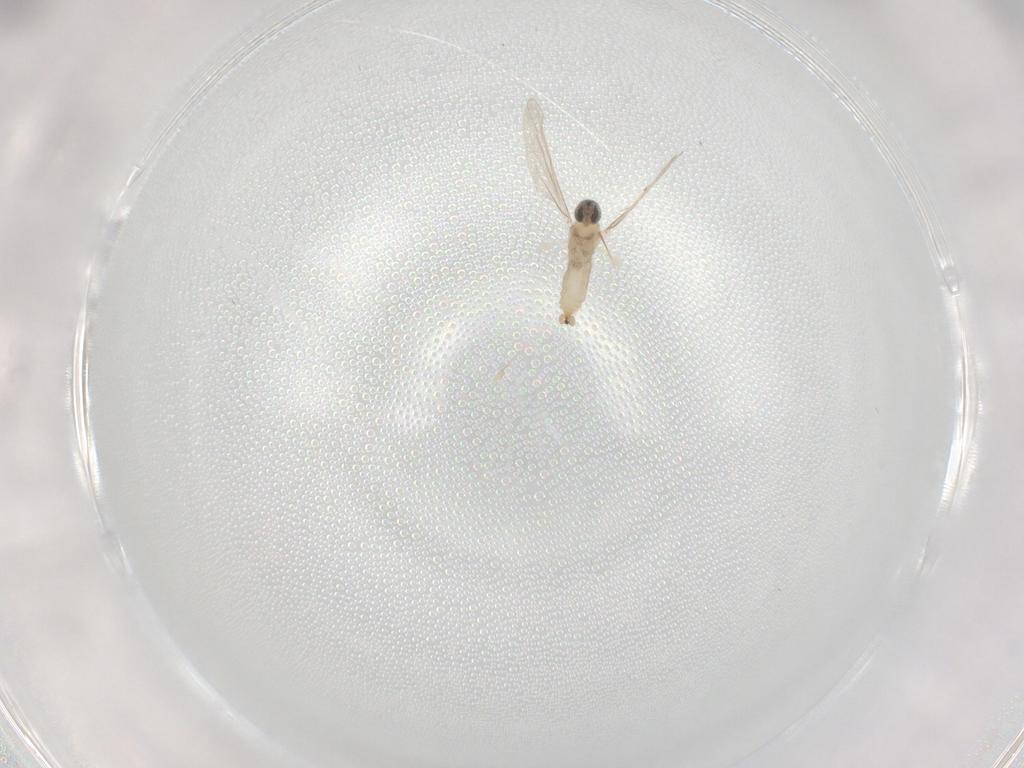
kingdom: Animalia
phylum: Arthropoda
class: Insecta
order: Diptera
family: Cecidomyiidae
